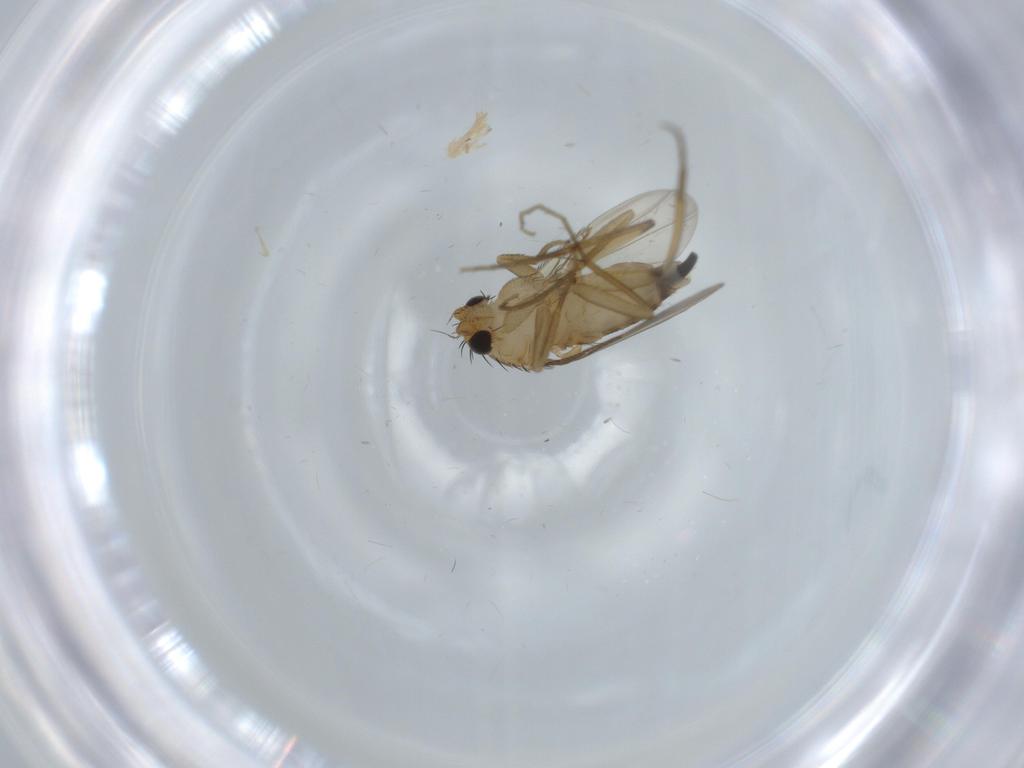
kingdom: Animalia
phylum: Arthropoda
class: Insecta
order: Diptera
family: Phoridae
